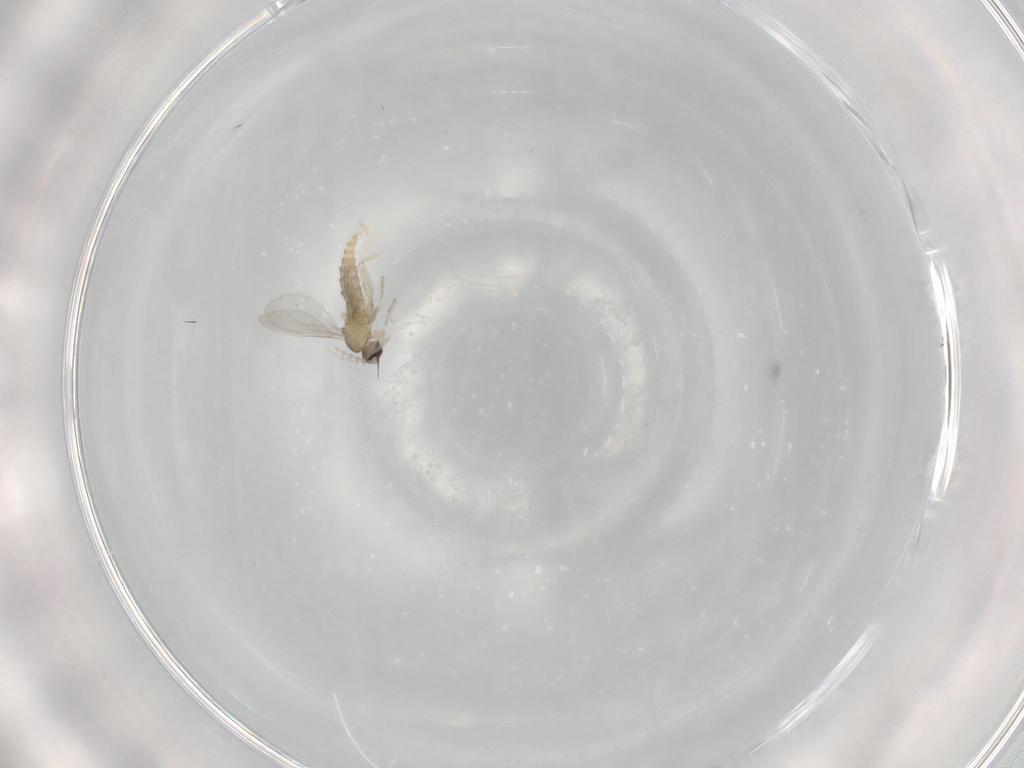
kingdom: Animalia
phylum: Arthropoda
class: Insecta
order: Diptera
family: Cecidomyiidae
